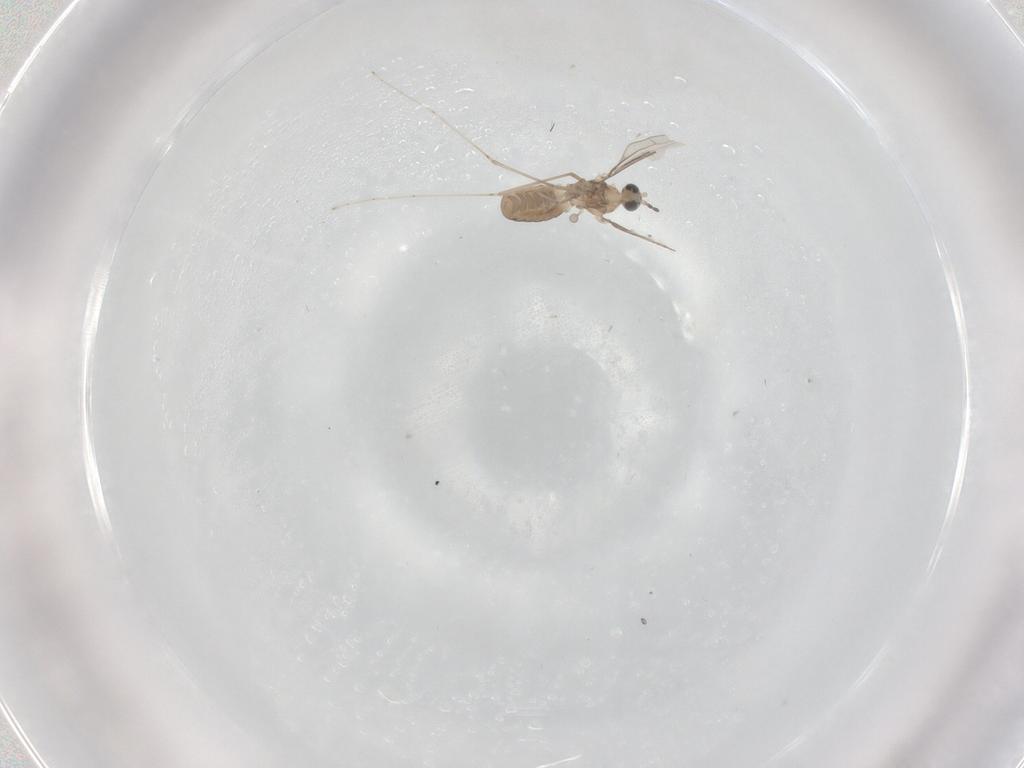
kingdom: Animalia
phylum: Arthropoda
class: Insecta
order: Diptera
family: Cecidomyiidae
